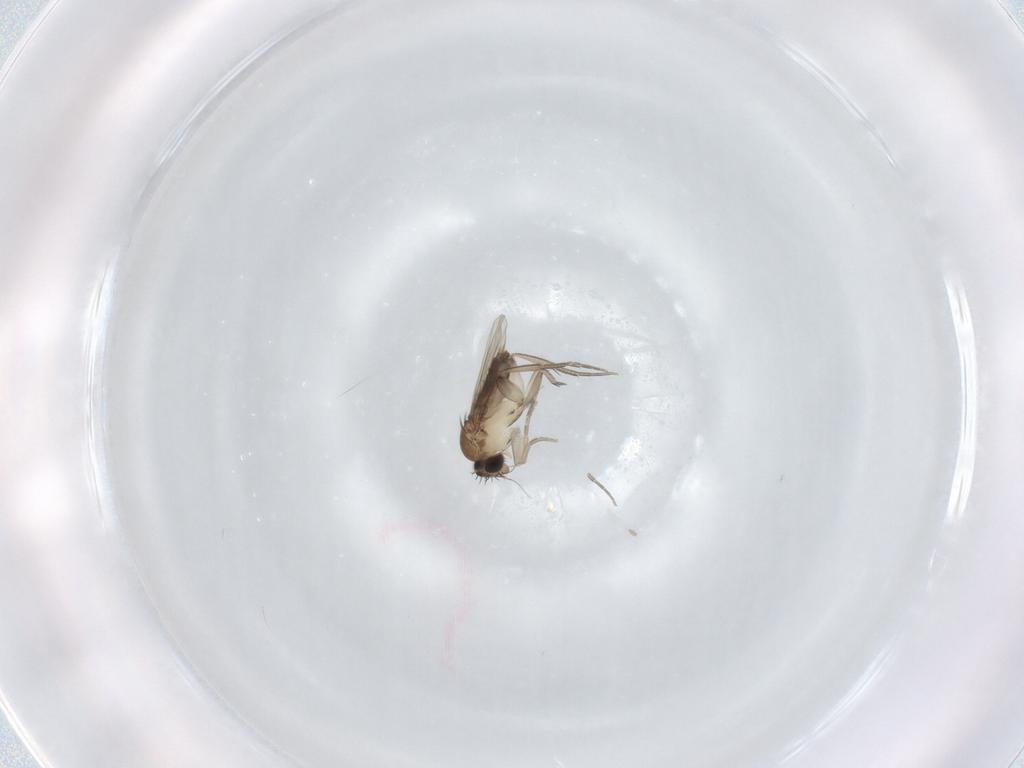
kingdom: Animalia
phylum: Arthropoda
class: Insecta
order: Diptera
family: Phoridae
